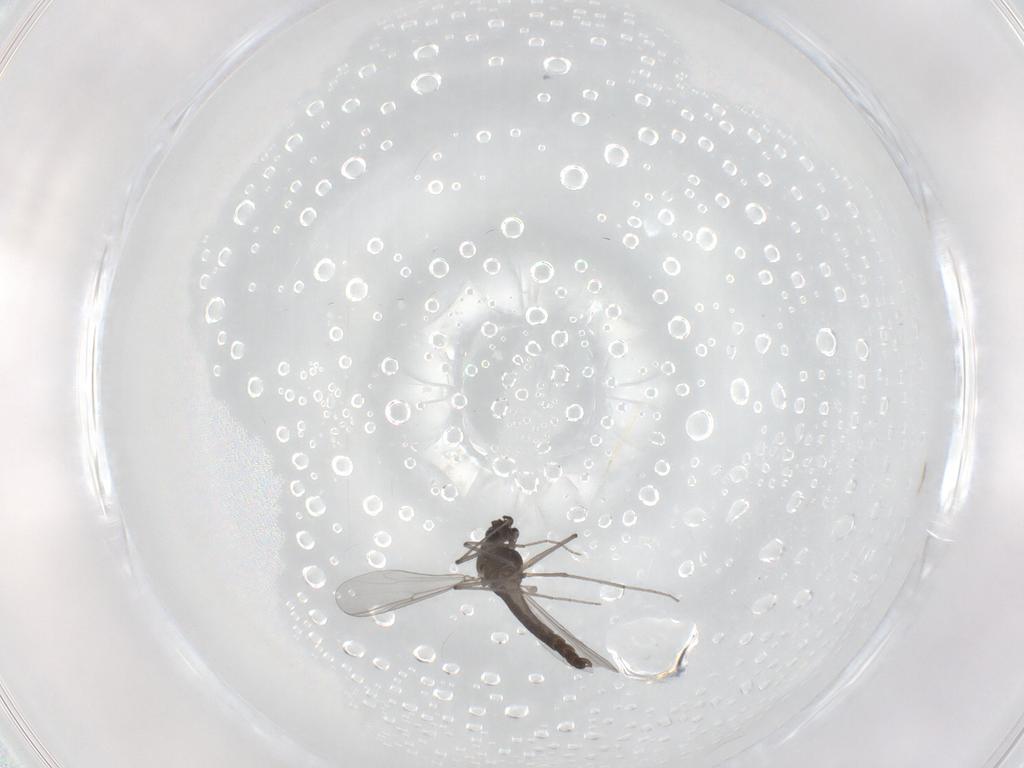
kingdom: Animalia
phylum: Arthropoda
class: Insecta
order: Diptera
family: Chironomidae
